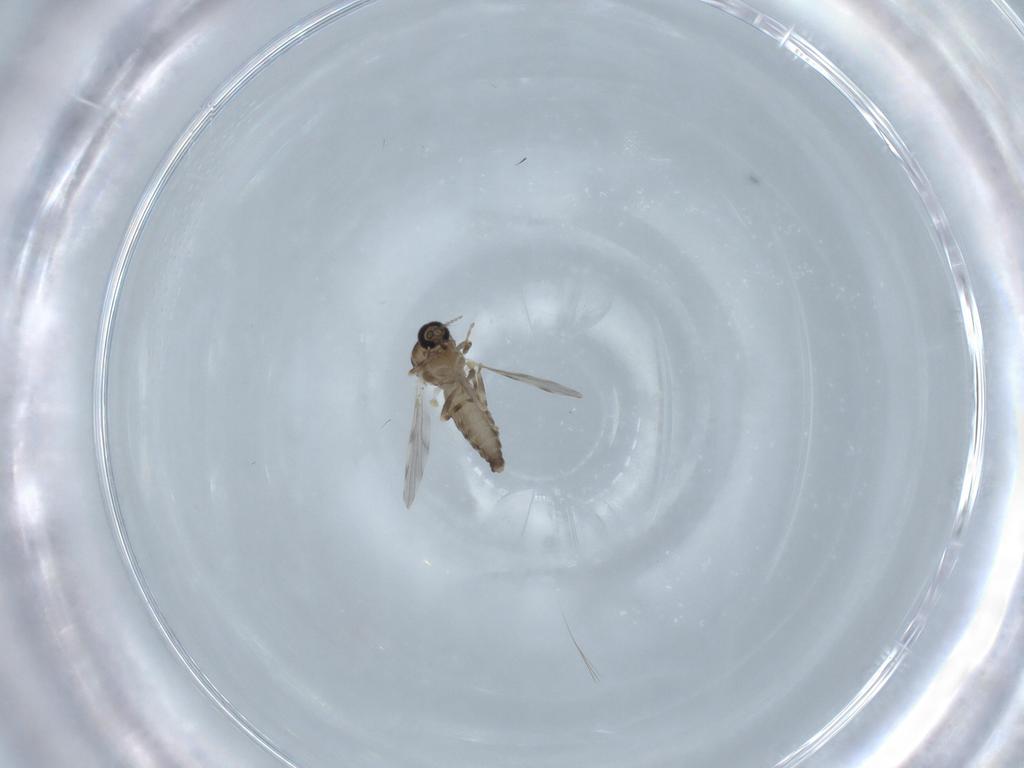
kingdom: Animalia
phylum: Arthropoda
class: Insecta
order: Diptera
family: Ceratopogonidae
